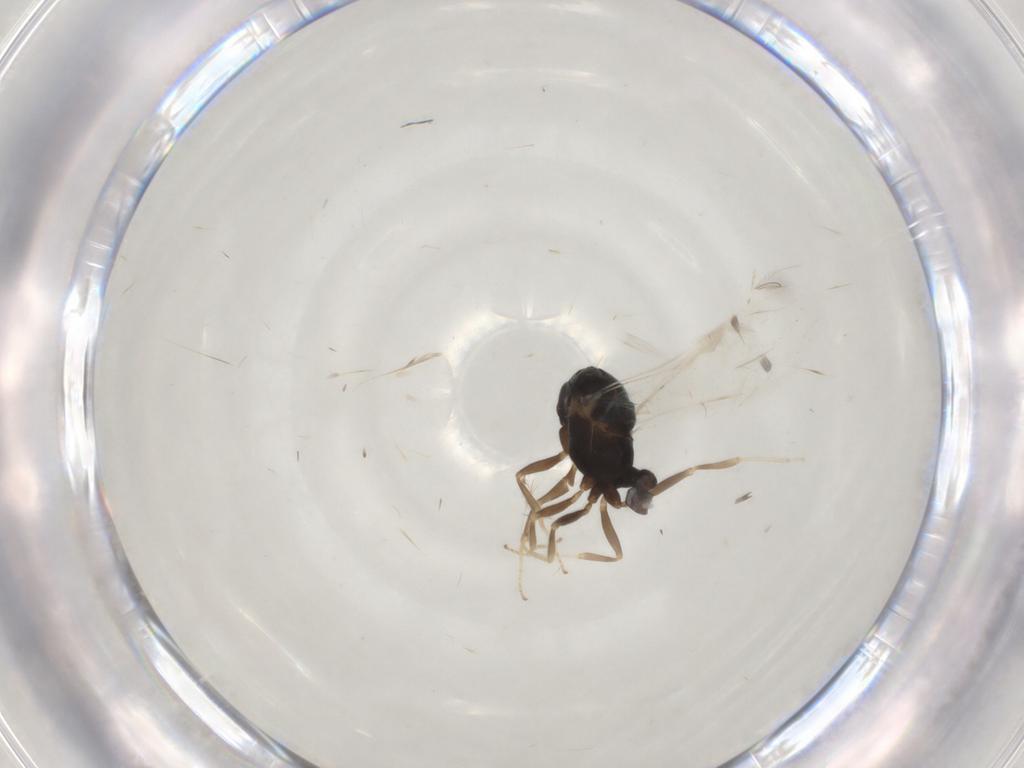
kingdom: Animalia
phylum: Arthropoda
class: Insecta
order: Hymenoptera
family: Formicidae
